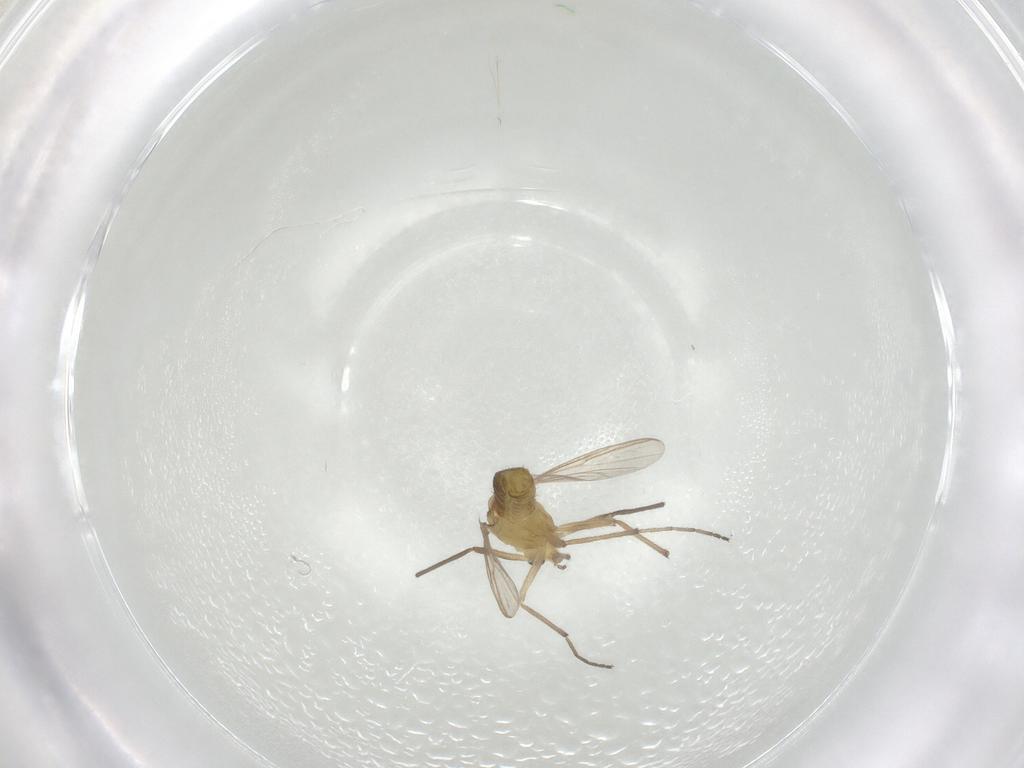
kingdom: Animalia
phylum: Arthropoda
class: Insecta
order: Diptera
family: Chironomidae
